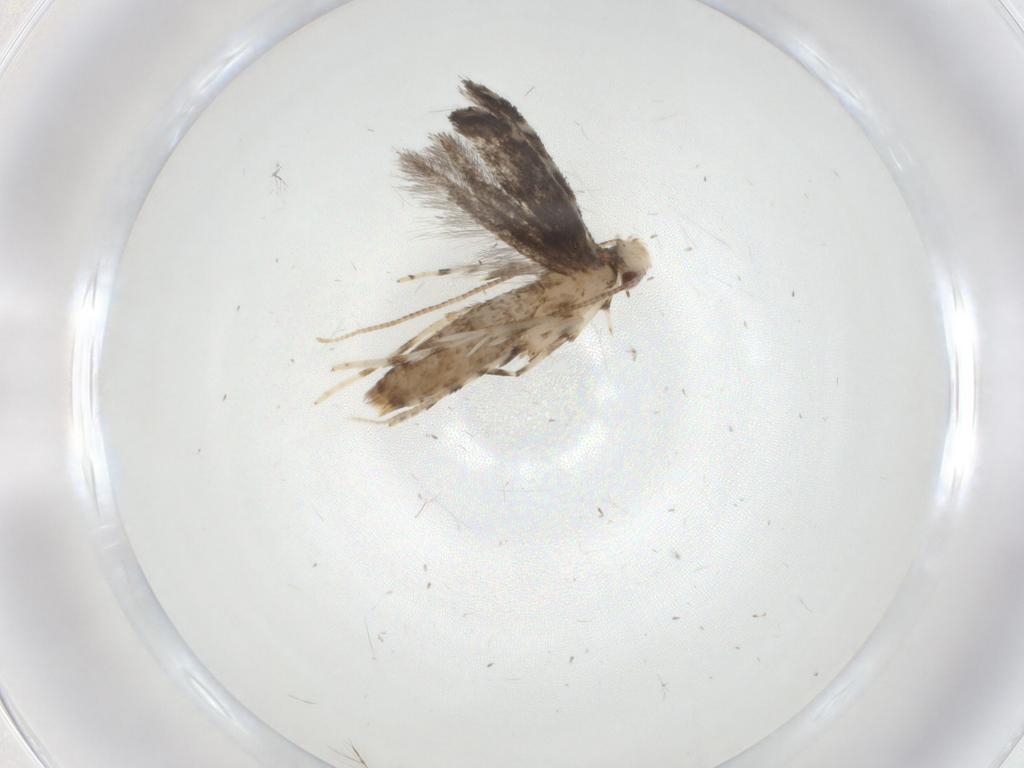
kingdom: Animalia
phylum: Arthropoda
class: Insecta
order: Lepidoptera
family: Gracillariidae
